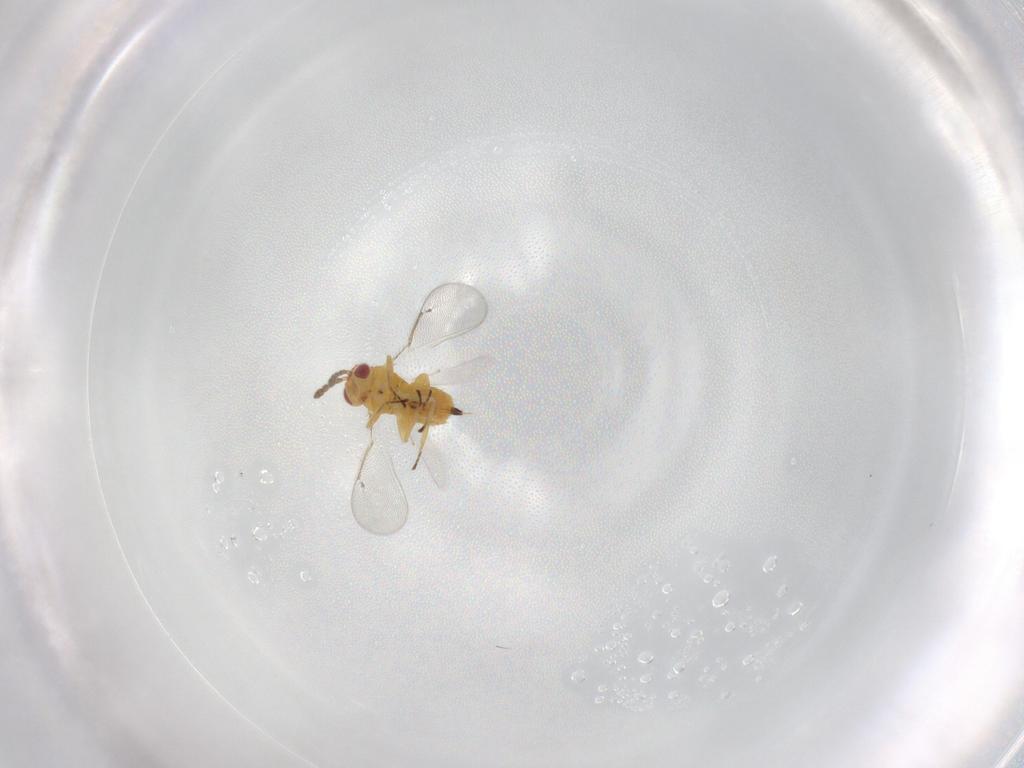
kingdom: Animalia
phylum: Arthropoda
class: Insecta
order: Hymenoptera
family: Eulophidae
